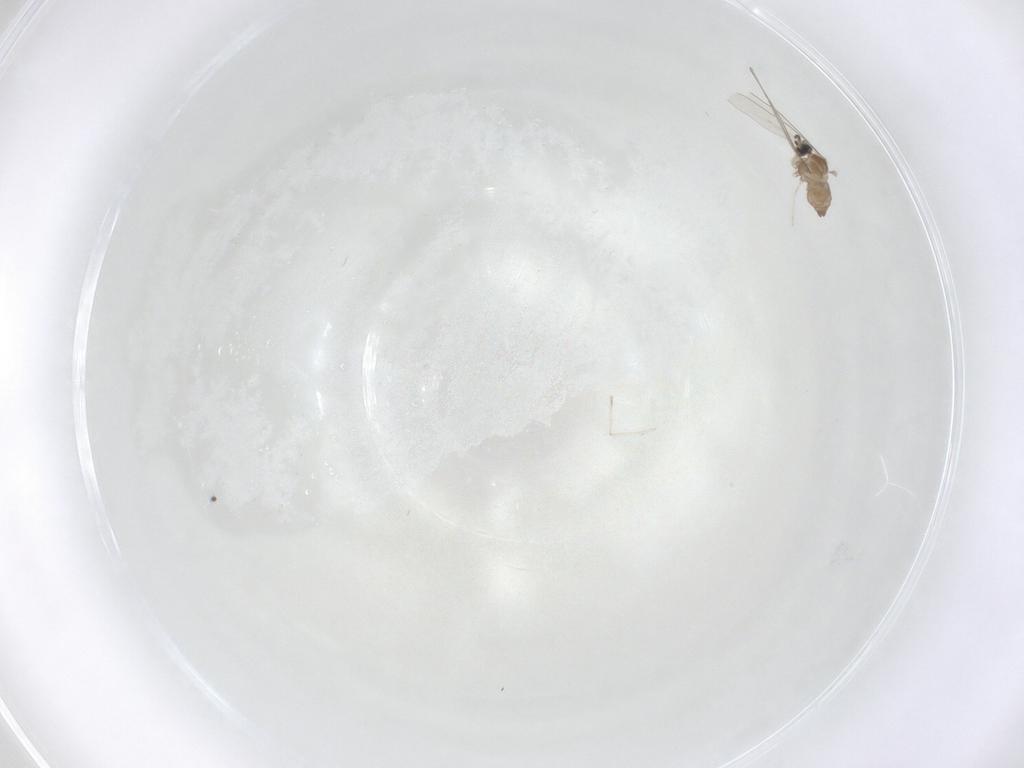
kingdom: Animalia
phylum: Arthropoda
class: Insecta
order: Diptera
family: Cecidomyiidae
